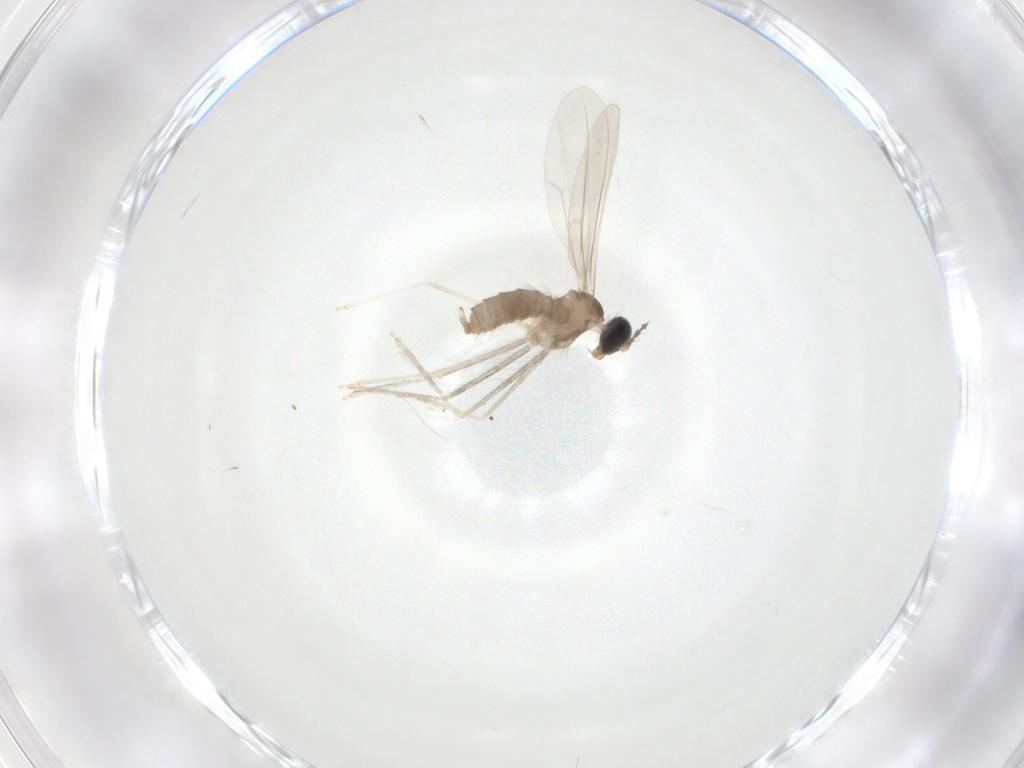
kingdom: Animalia
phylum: Arthropoda
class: Insecta
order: Diptera
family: Cecidomyiidae
